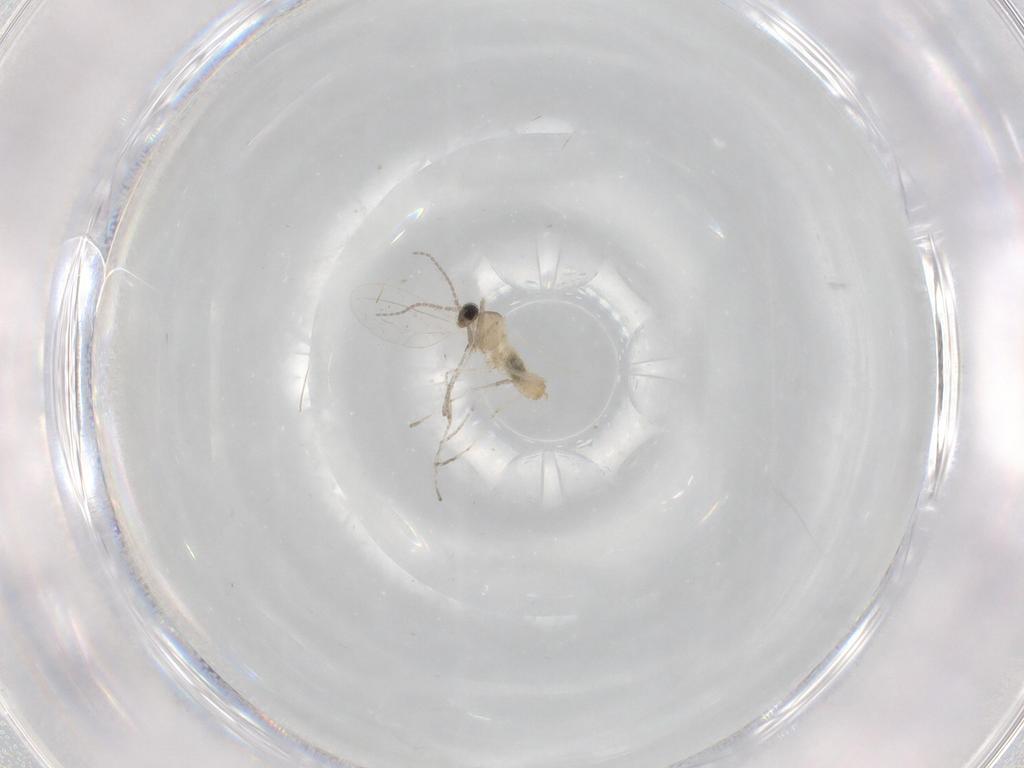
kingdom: Animalia
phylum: Arthropoda
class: Insecta
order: Diptera
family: Cecidomyiidae
